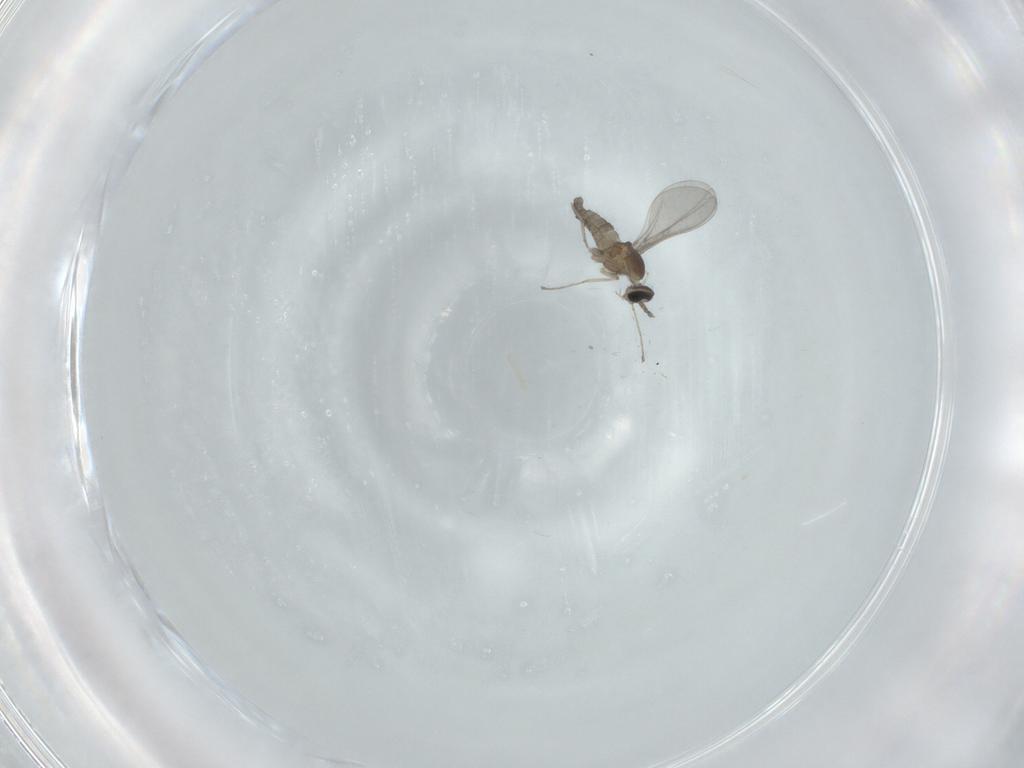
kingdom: Animalia
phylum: Arthropoda
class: Insecta
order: Diptera
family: Cecidomyiidae
